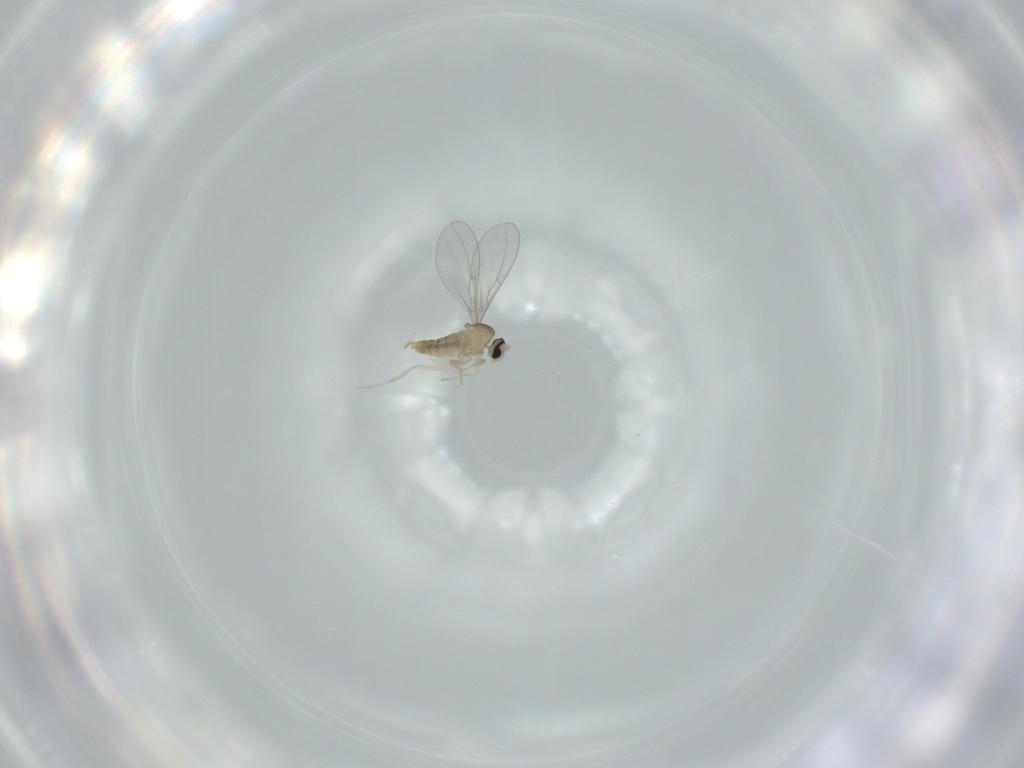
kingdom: Animalia
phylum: Arthropoda
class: Insecta
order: Diptera
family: Cecidomyiidae
